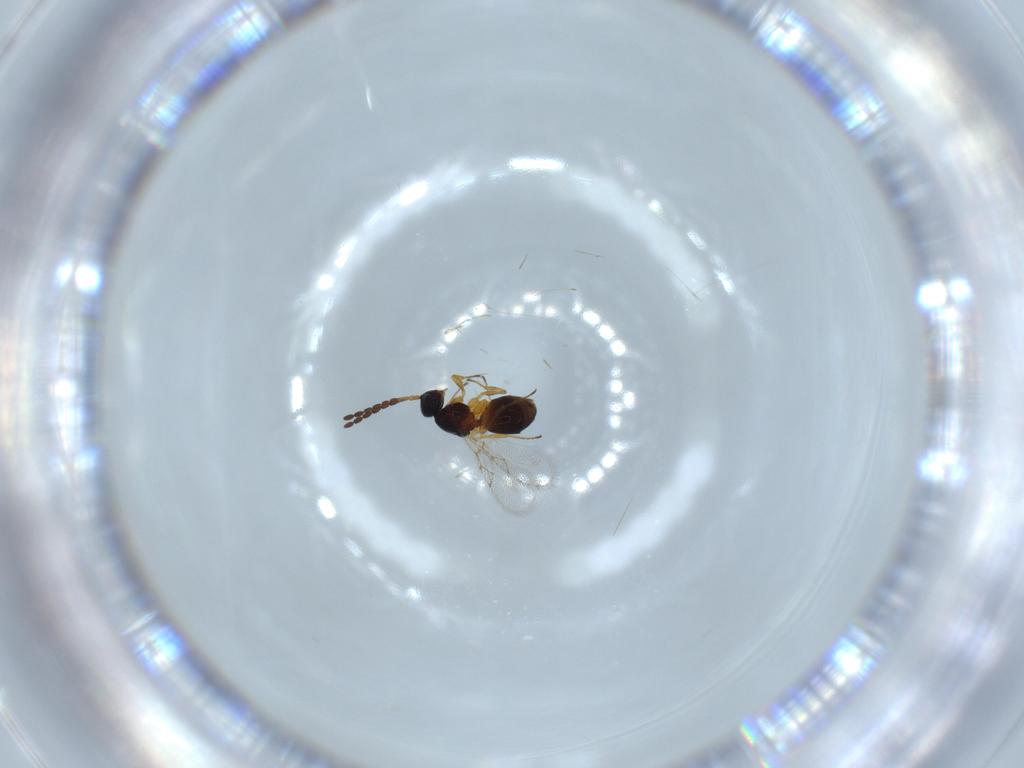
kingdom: Animalia
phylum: Arthropoda
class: Insecta
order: Hymenoptera
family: Figitidae
